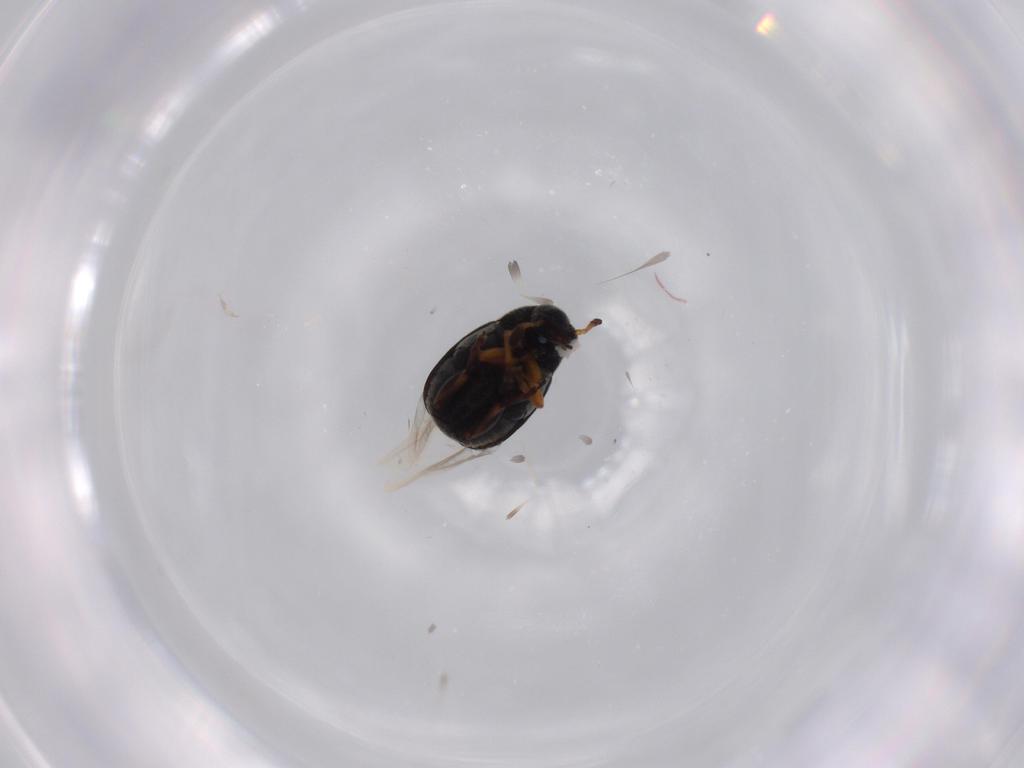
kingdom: Animalia
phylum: Arthropoda
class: Insecta
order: Coleoptera
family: Chrysomelidae
